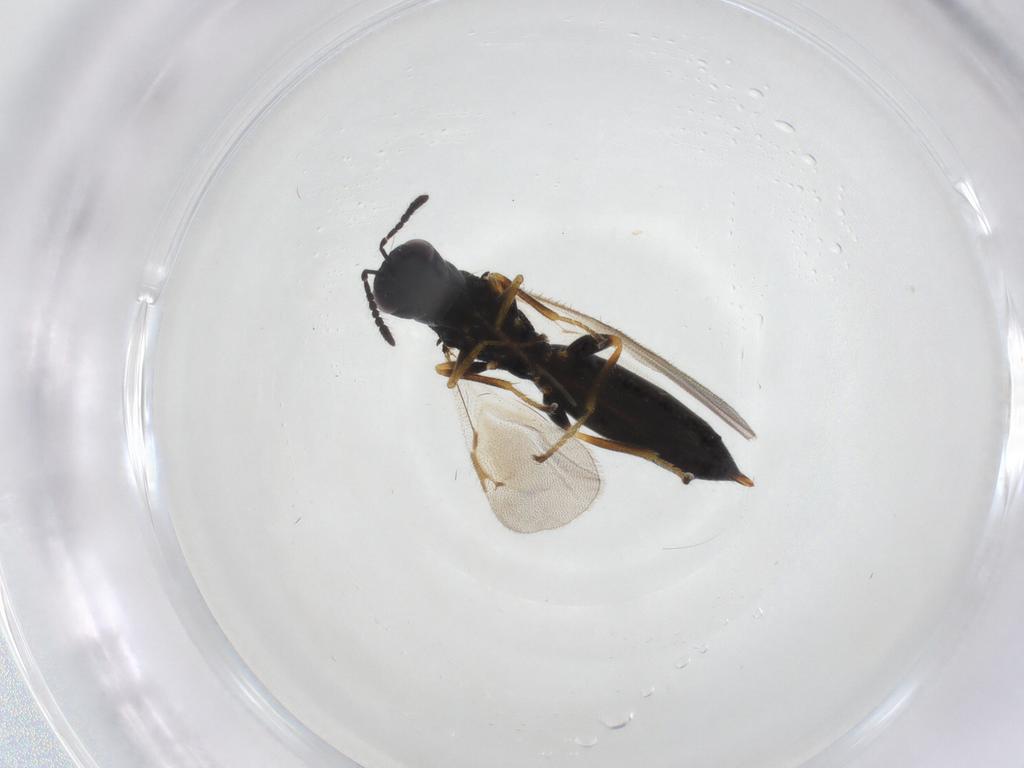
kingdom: Animalia
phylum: Arthropoda
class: Insecta
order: Hymenoptera
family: Eurytomidae
